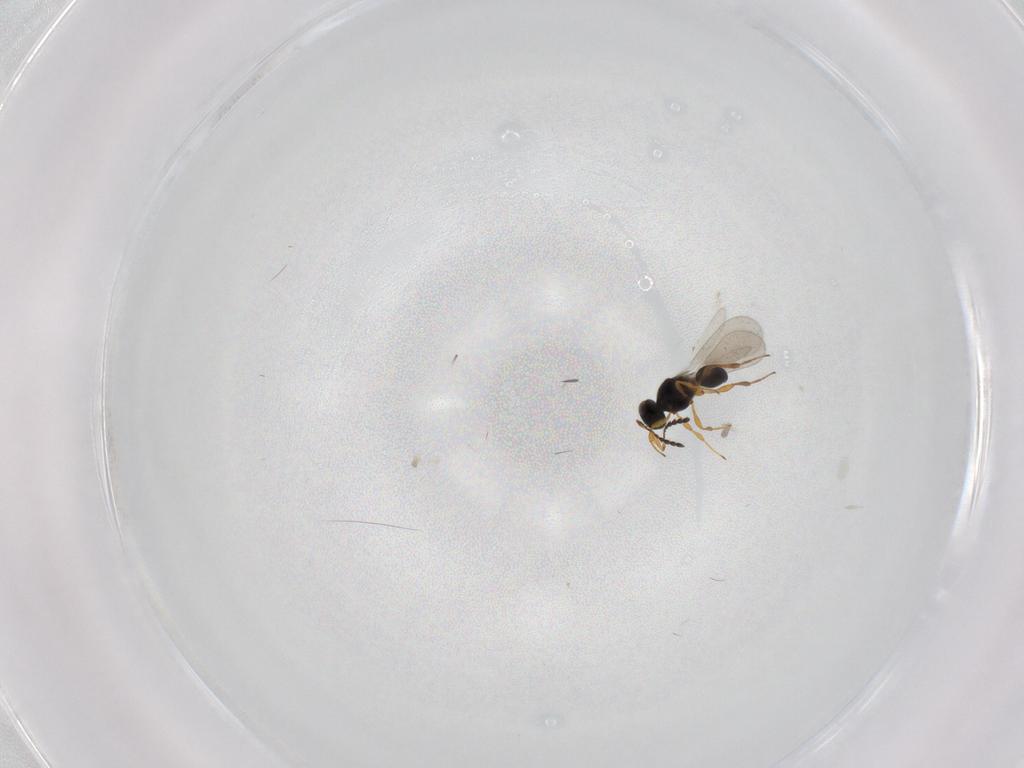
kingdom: Animalia
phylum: Arthropoda
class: Insecta
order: Hymenoptera
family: Platygastridae
